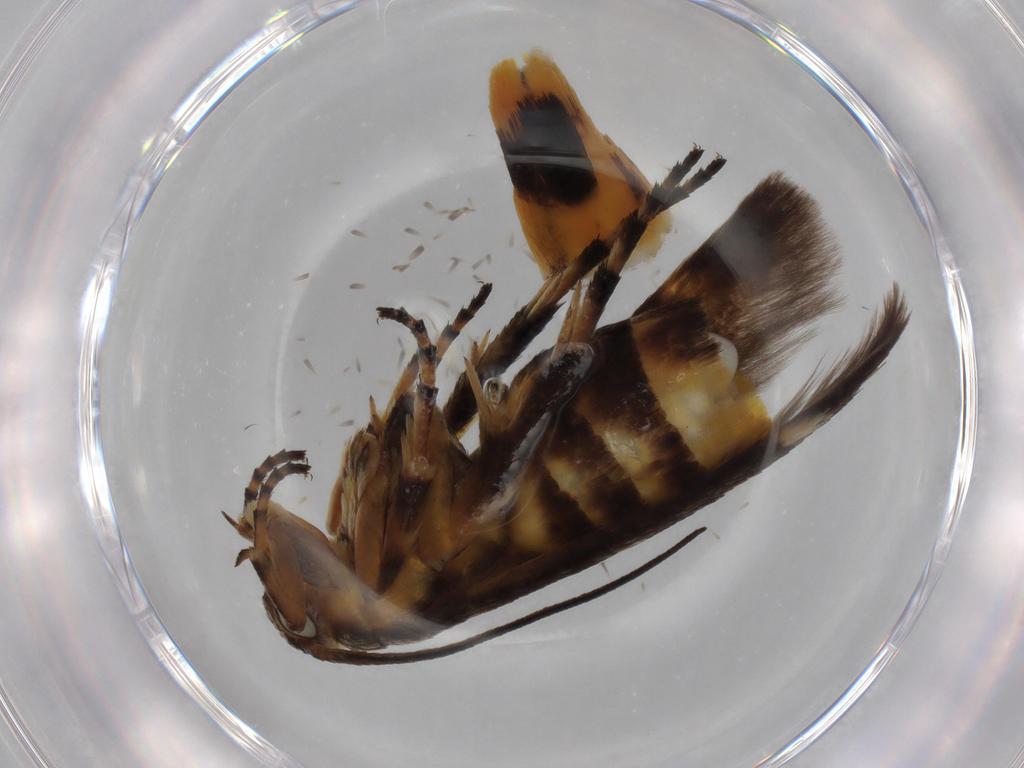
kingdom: Animalia
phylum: Arthropoda
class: Insecta
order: Lepidoptera
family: Scythrididae
